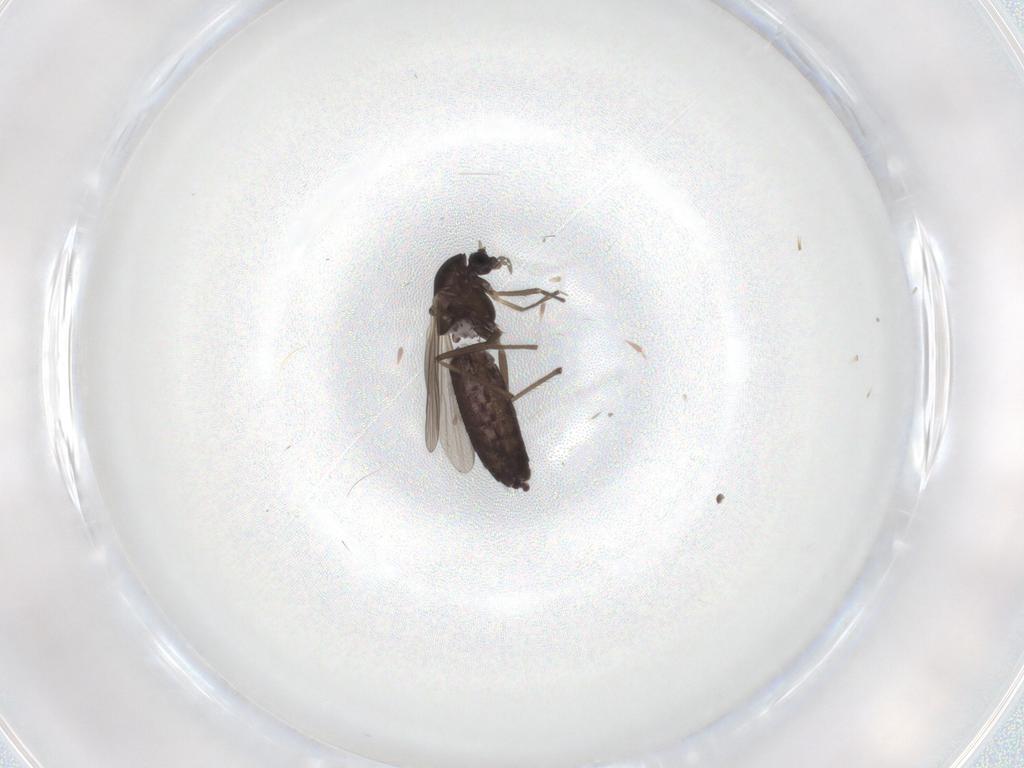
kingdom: Animalia
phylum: Arthropoda
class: Insecta
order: Diptera
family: Chironomidae
